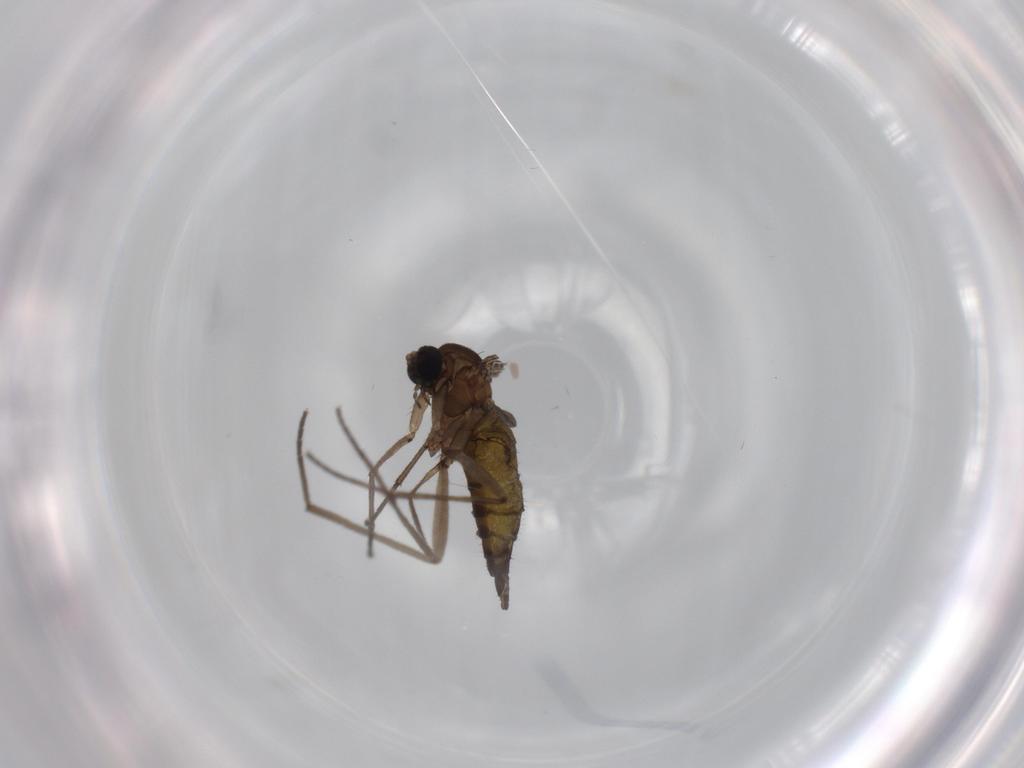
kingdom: Animalia
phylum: Arthropoda
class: Insecta
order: Diptera
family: Sciaridae
